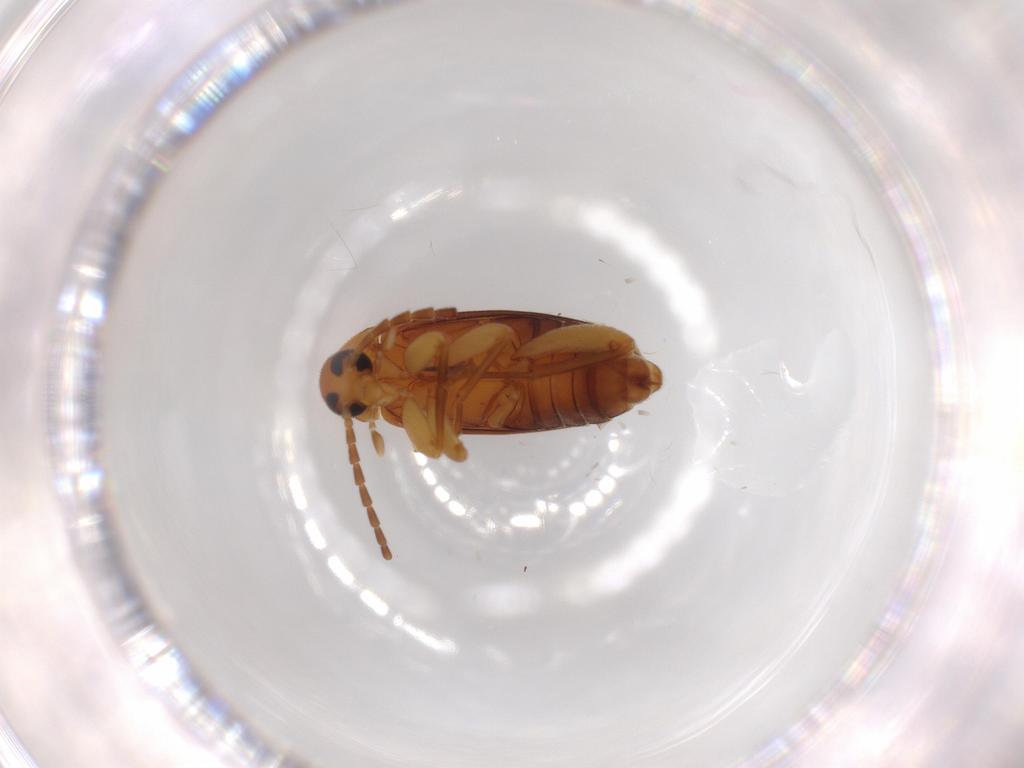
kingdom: Animalia
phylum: Arthropoda
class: Insecta
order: Coleoptera
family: Scraptiidae
